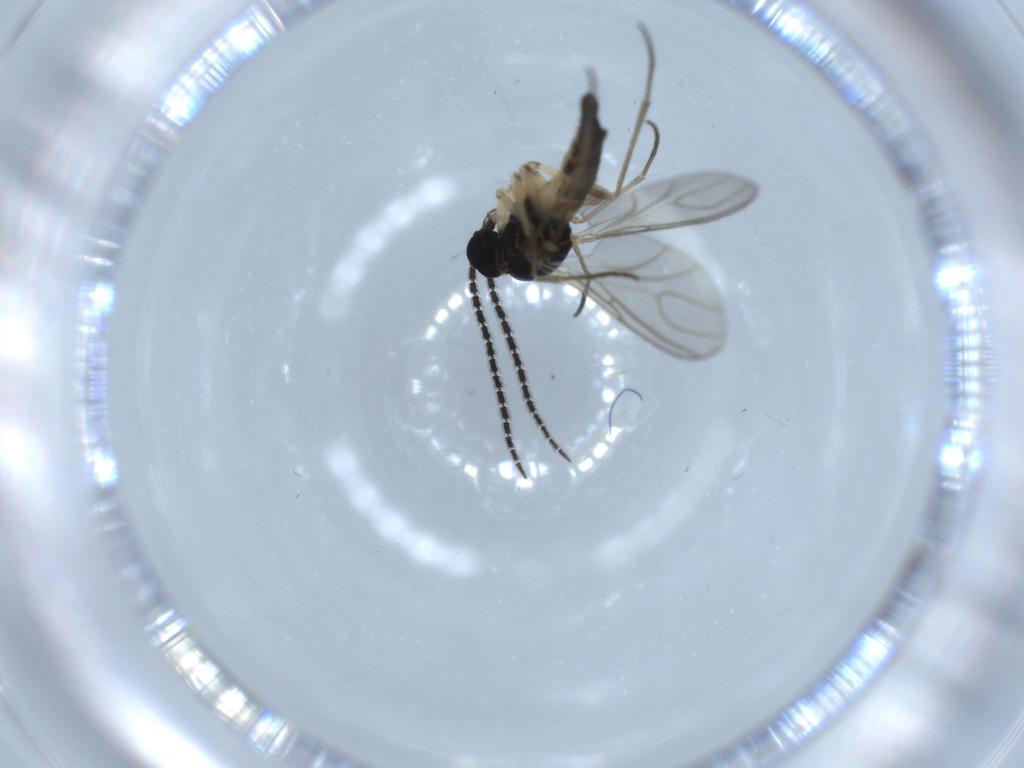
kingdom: Animalia
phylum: Arthropoda
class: Insecta
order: Diptera
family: Sciaridae
